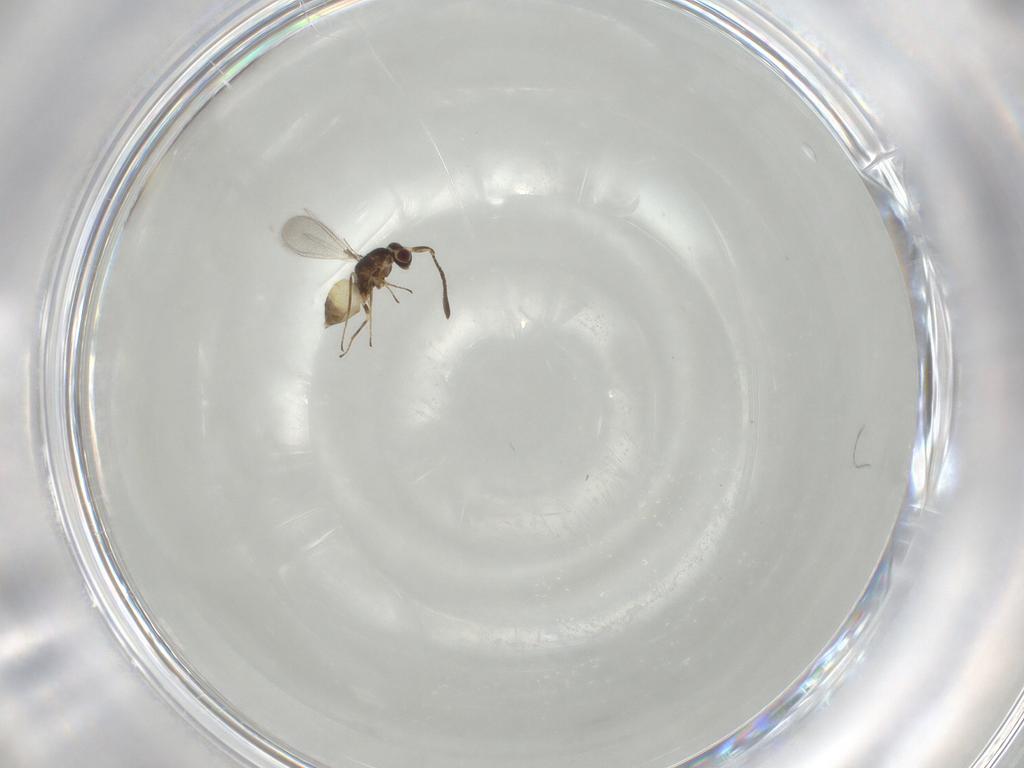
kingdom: Animalia
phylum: Arthropoda
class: Insecta
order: Hymenoptera
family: Eulophidae
